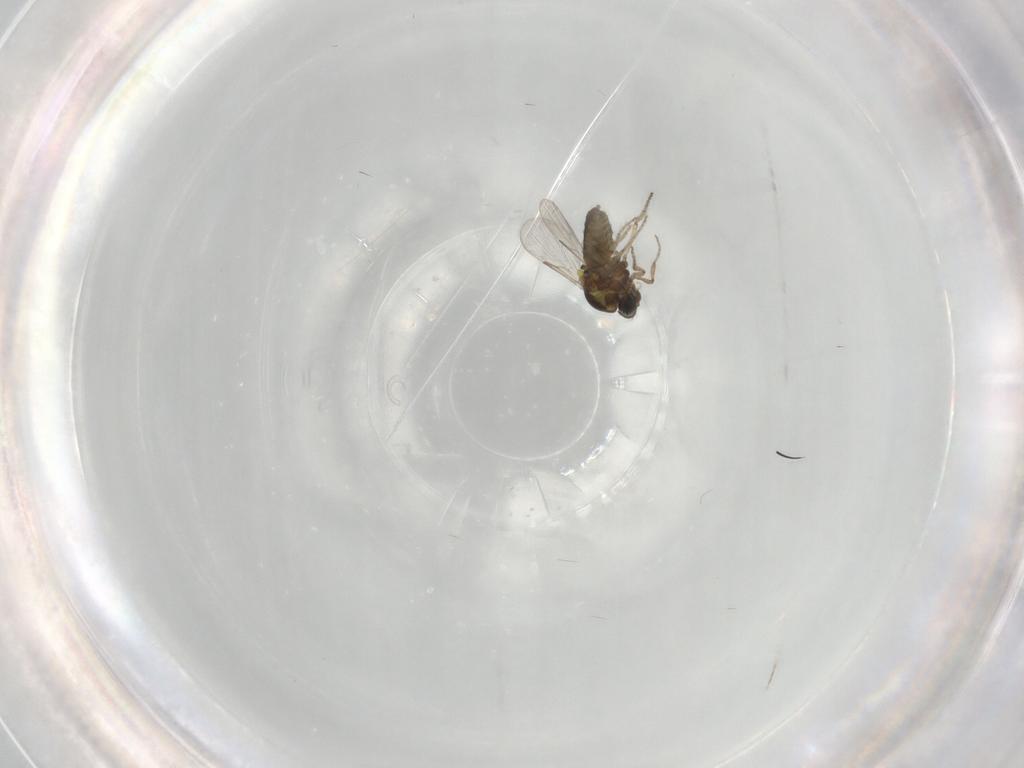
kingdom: Animalia
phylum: Arthropoda
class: Insecta
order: Diptera
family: Ceratopogonidae
